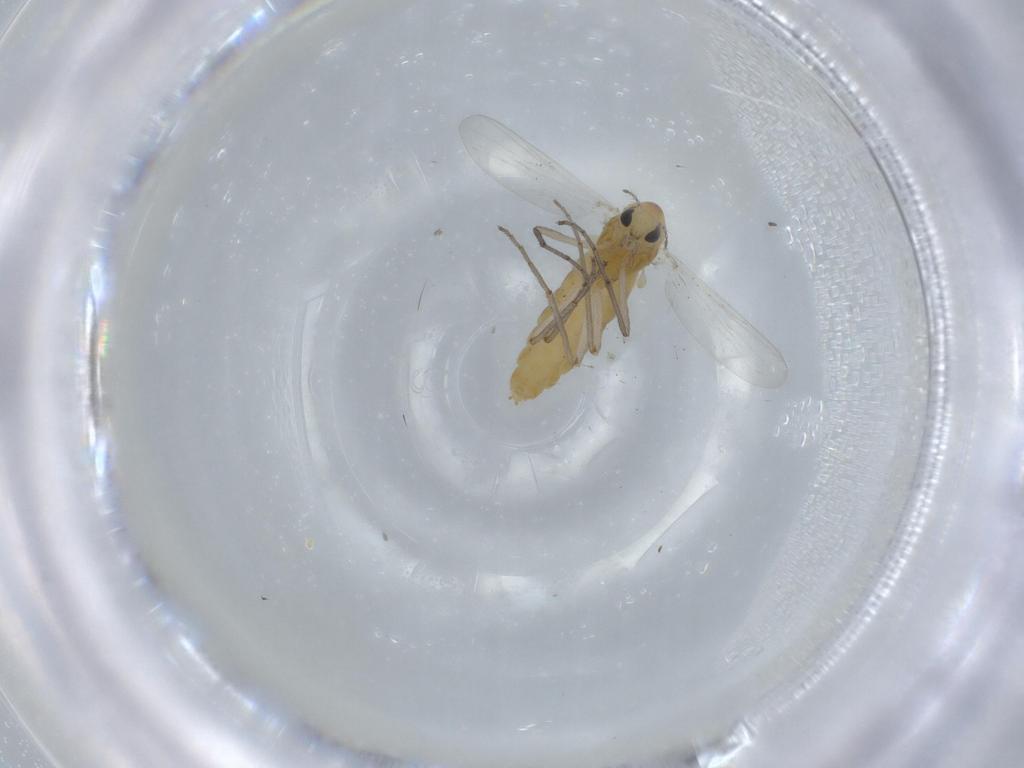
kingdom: Animalia
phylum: Arthropoda
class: Insecta
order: Diptera
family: Chironomidae
